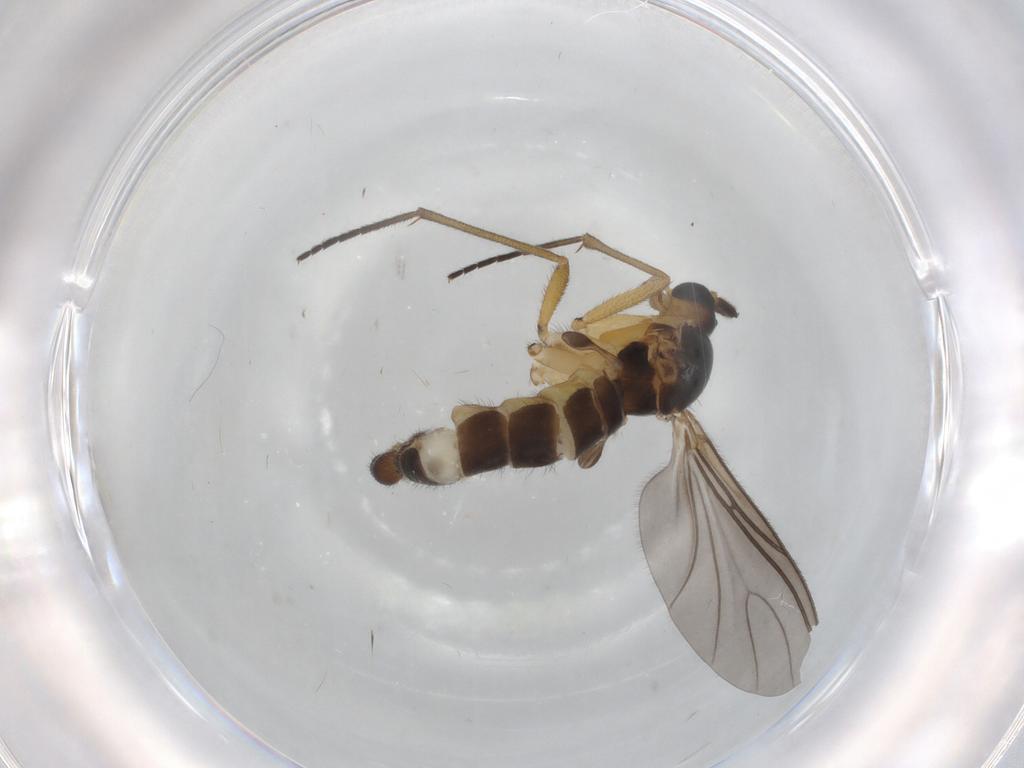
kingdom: Animalia
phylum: Arthropoda
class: Insecta
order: Diptera
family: Sciaridae
